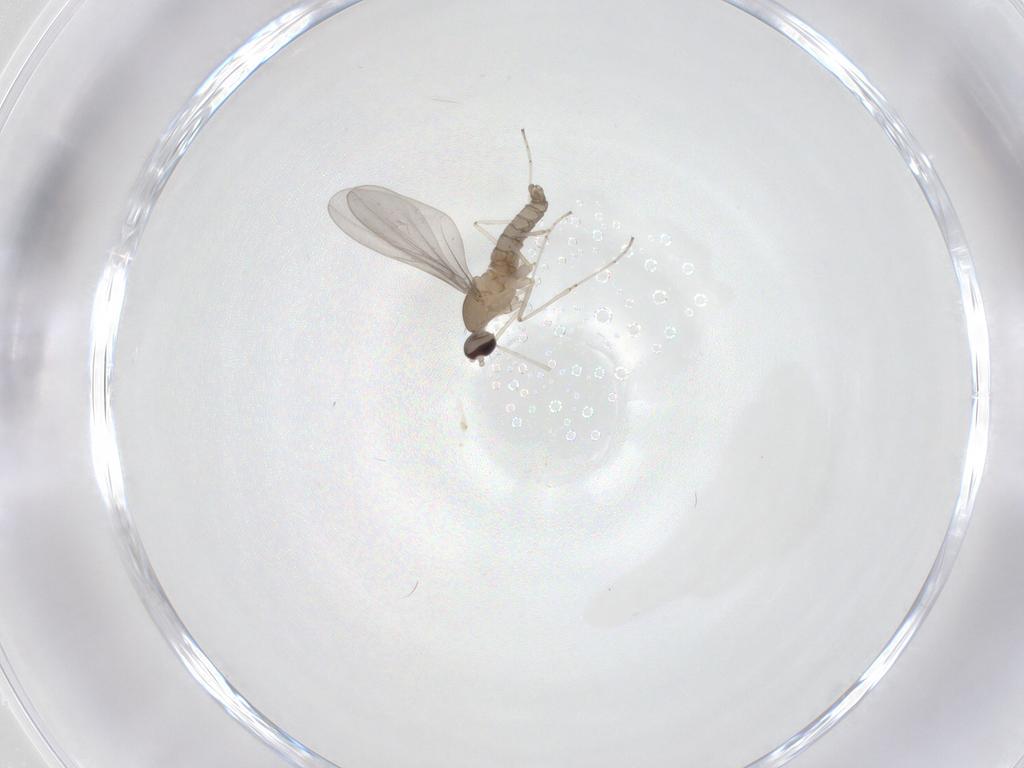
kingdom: Animalia
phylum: Arthropoda
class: Insecta
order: Diptera
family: Cecidomyiidae
